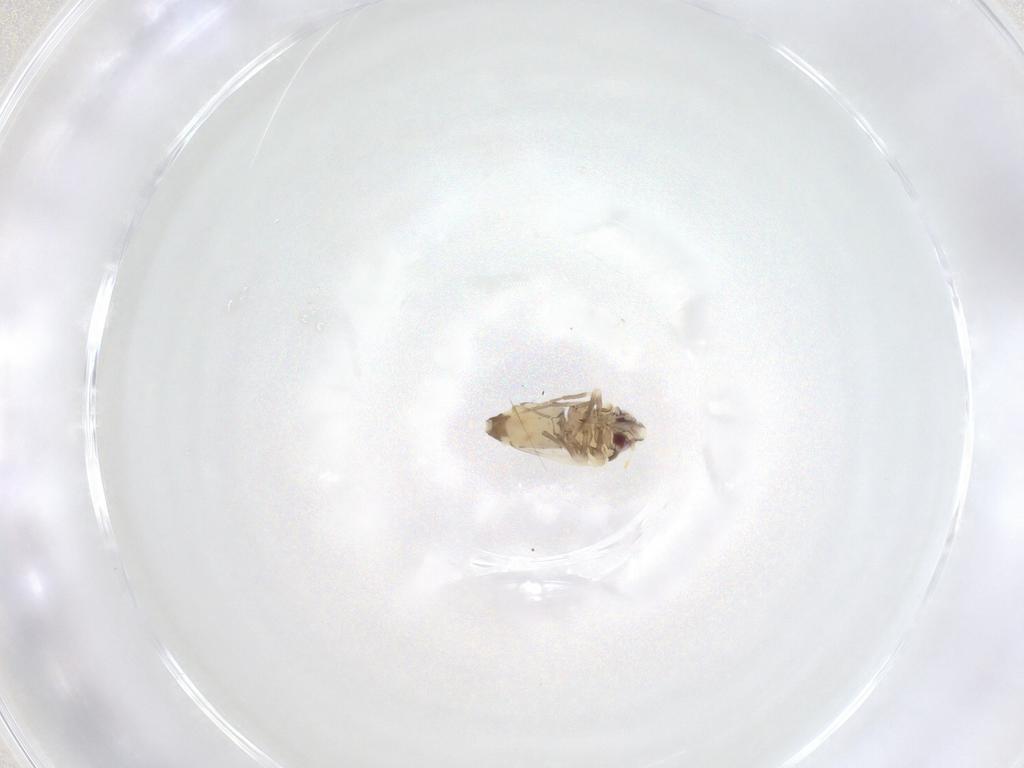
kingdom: Animalia
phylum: Arthropoda
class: Insecta
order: Hemiptera
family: Aleyrodidae
